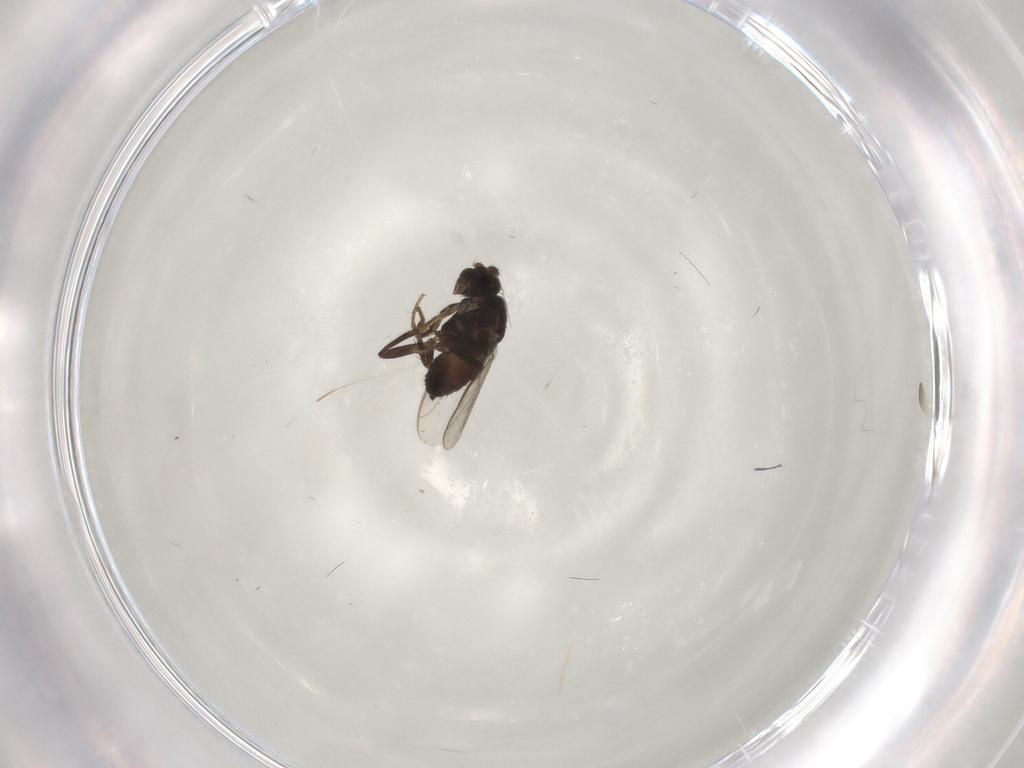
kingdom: Animalia
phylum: Arthropoda
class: Insecta
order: Diptera
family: Sphaeroceridae
